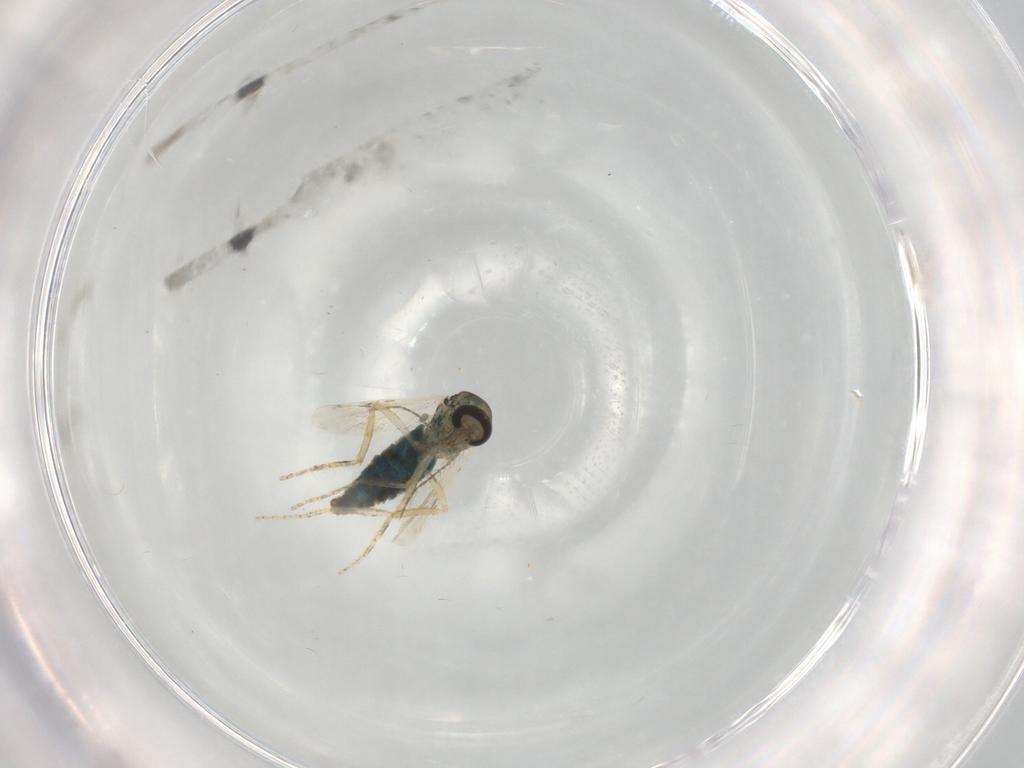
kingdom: Animalia
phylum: Arthropoda
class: Insecta
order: Diptera
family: Ceratopogonidae
